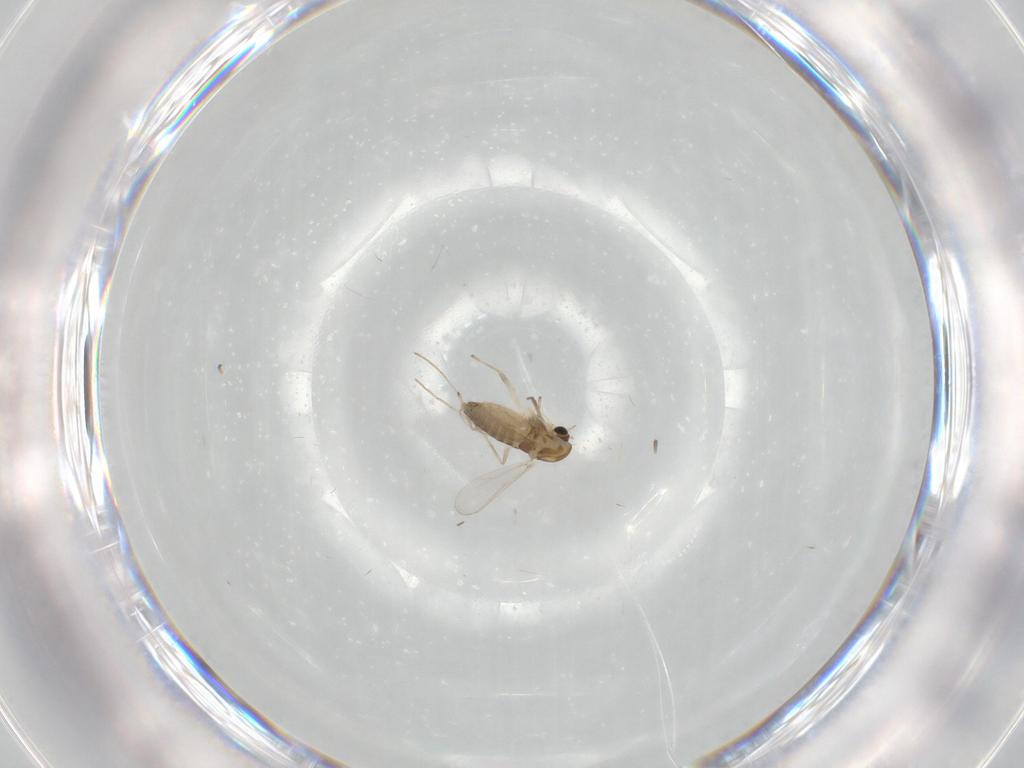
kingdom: Animalia
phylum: Arthropoda
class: Insecta
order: Diptera
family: Chironomidae
